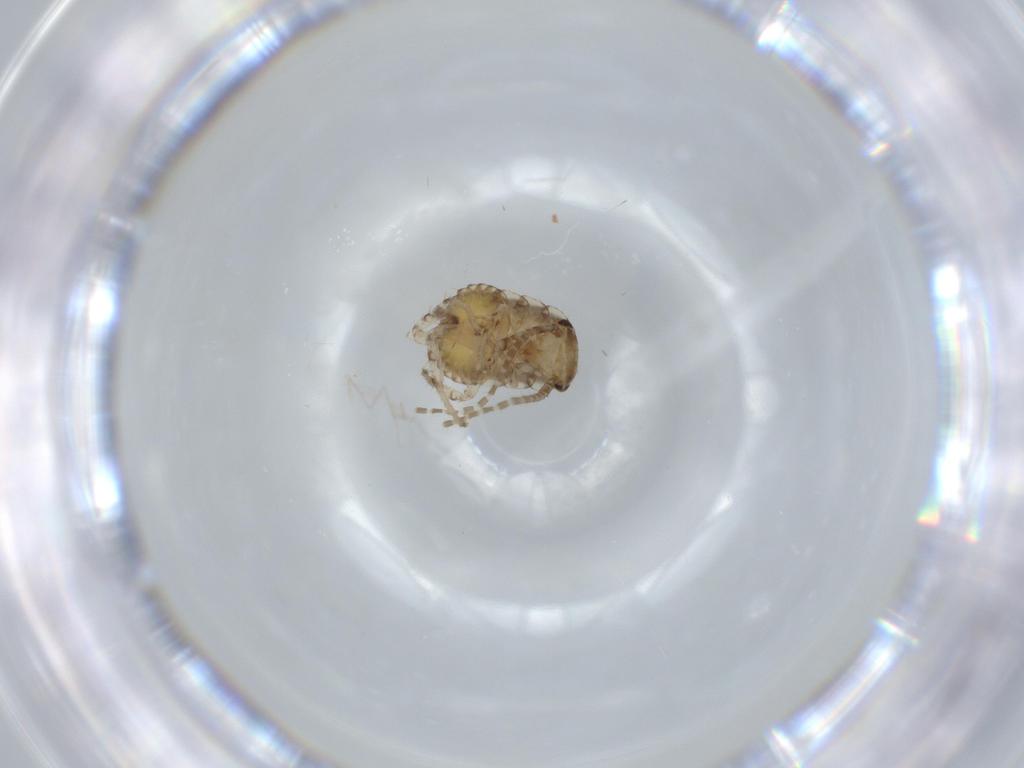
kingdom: Animalia
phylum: Arthropoda
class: Insecta
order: Blattodea
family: Ectobiidae
